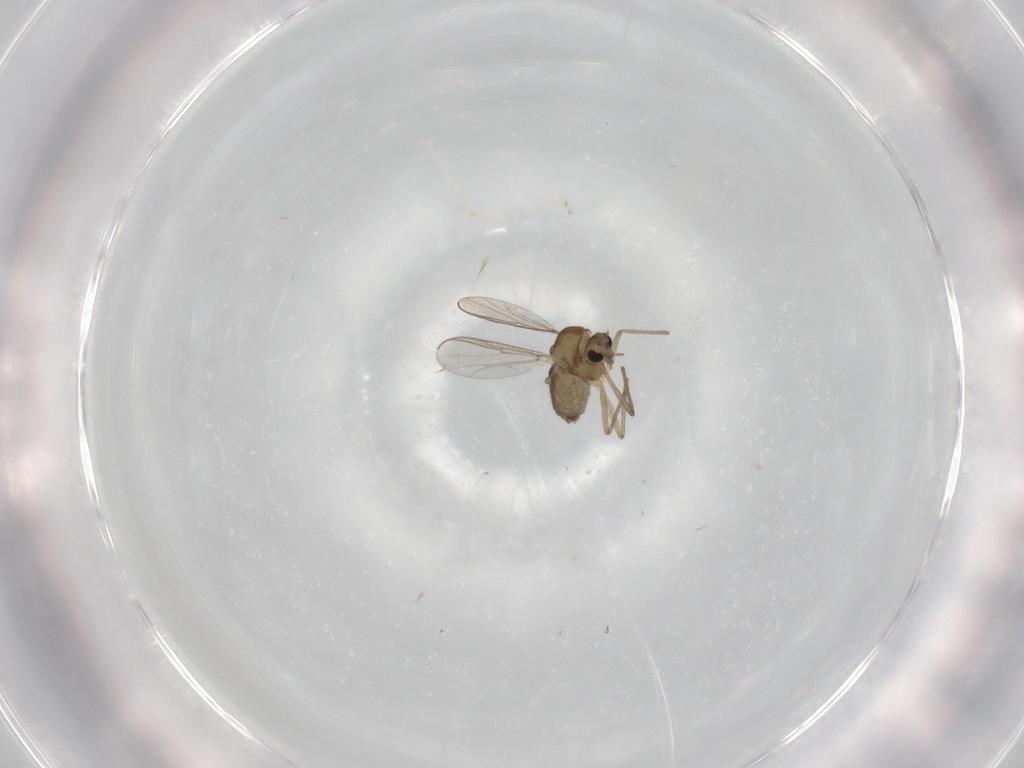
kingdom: Animalia
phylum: Arthropoda
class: Insecta
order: Diptera
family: Chironomidae
